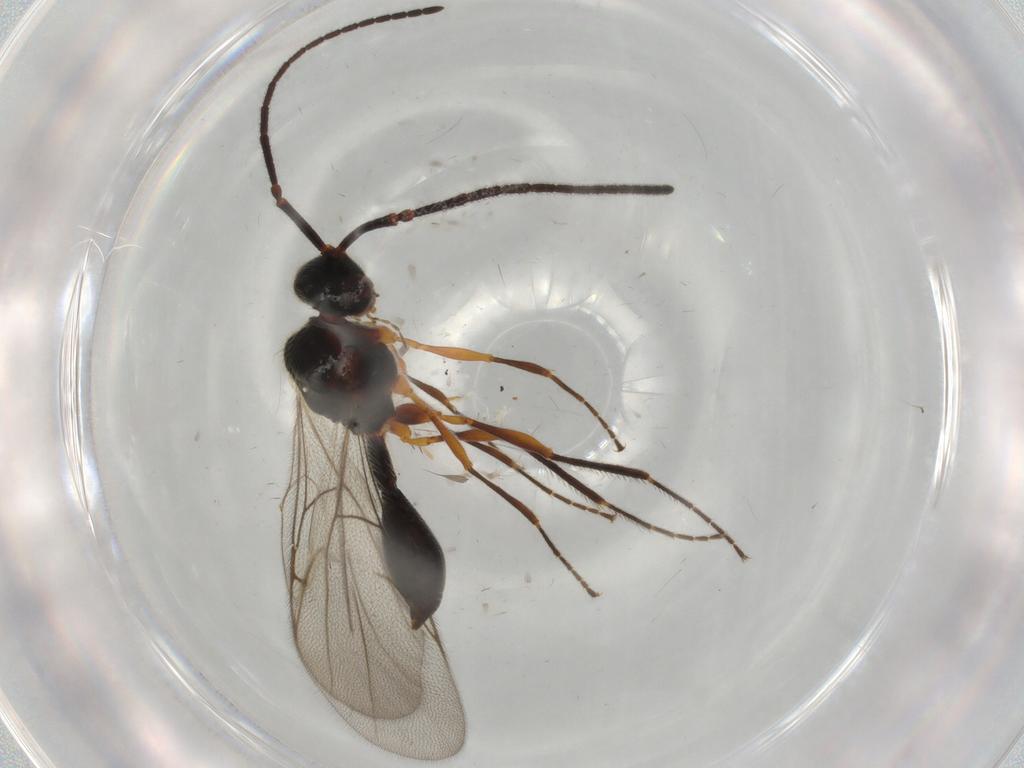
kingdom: Animalia
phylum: Arthropoda
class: Insecta
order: Hymenoptera
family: Diapriidae
